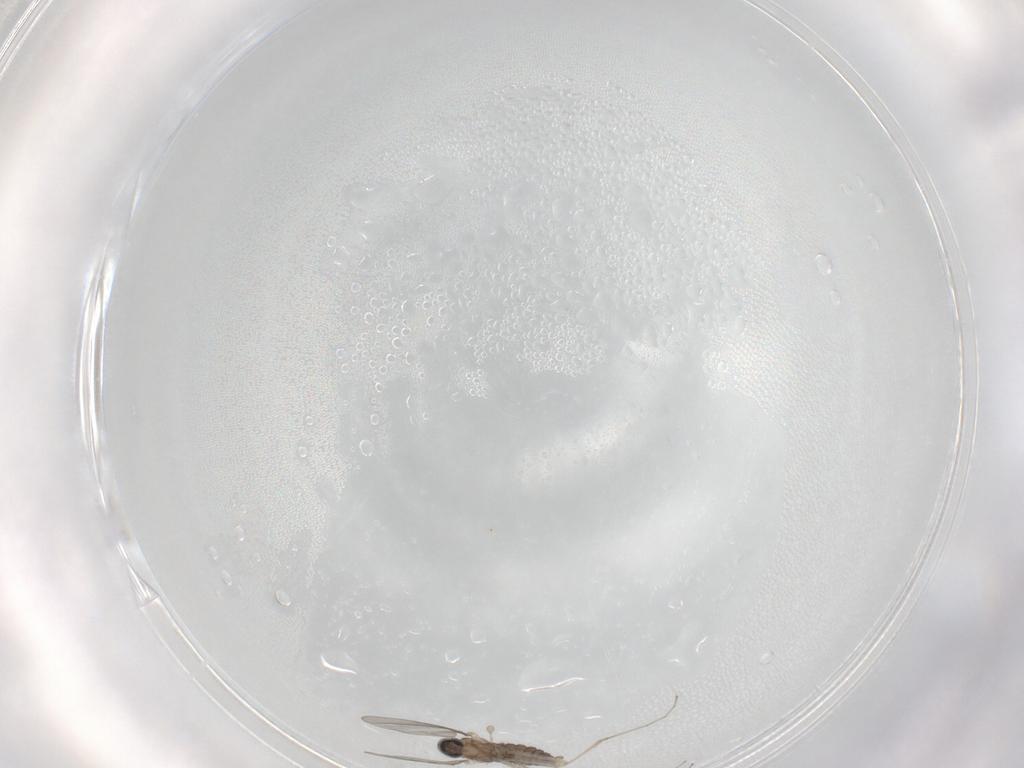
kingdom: Animalia
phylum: Arthropoda
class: Insecta
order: Diptera
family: Cecidomyiidae
